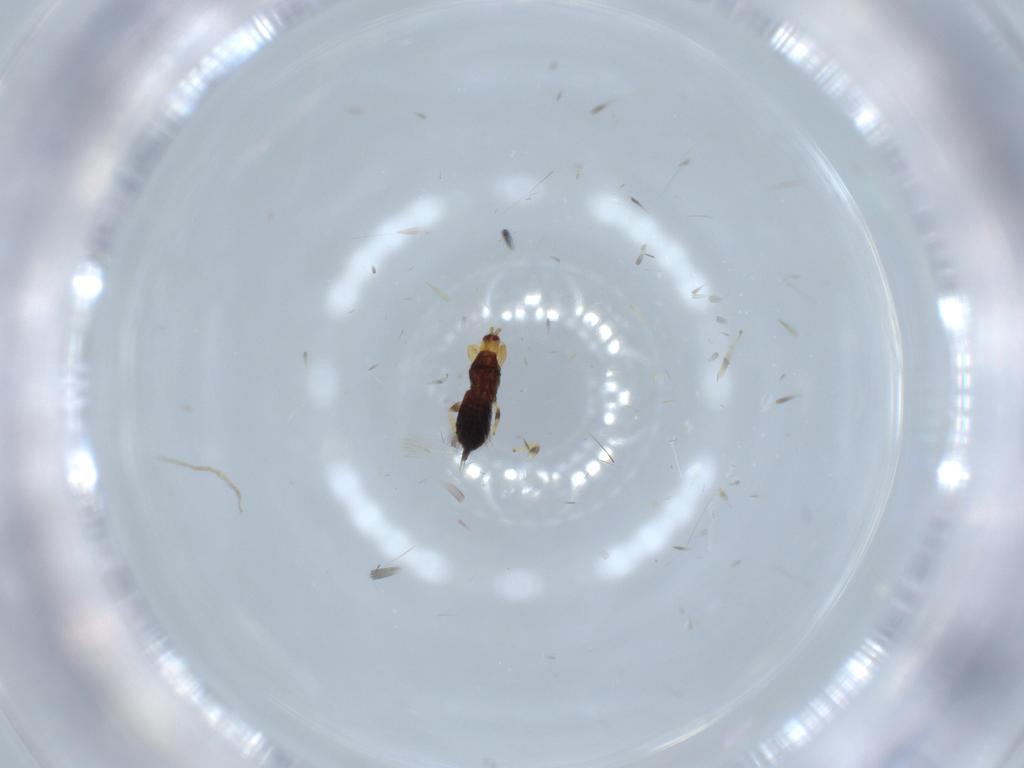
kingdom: Animalia
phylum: Arthropoda
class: Insecta
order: Thysanoptera
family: Phlaeothripidae
